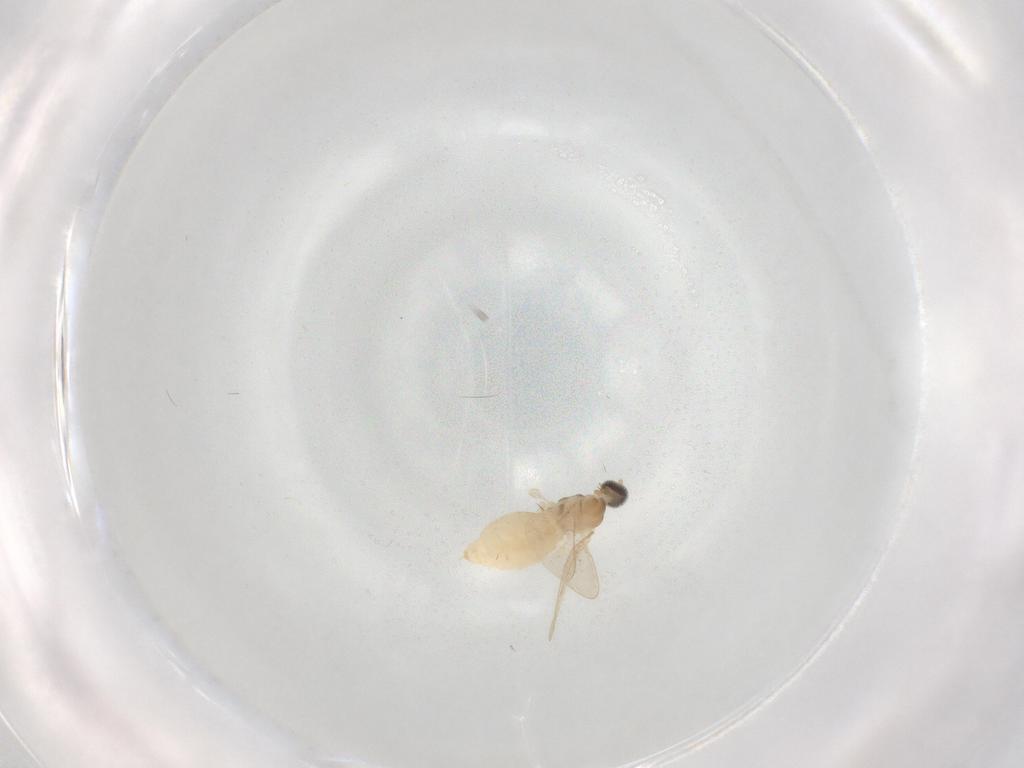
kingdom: Animalia
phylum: Arthropoda
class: Insecta
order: Diptera
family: Cecidomyiidae
